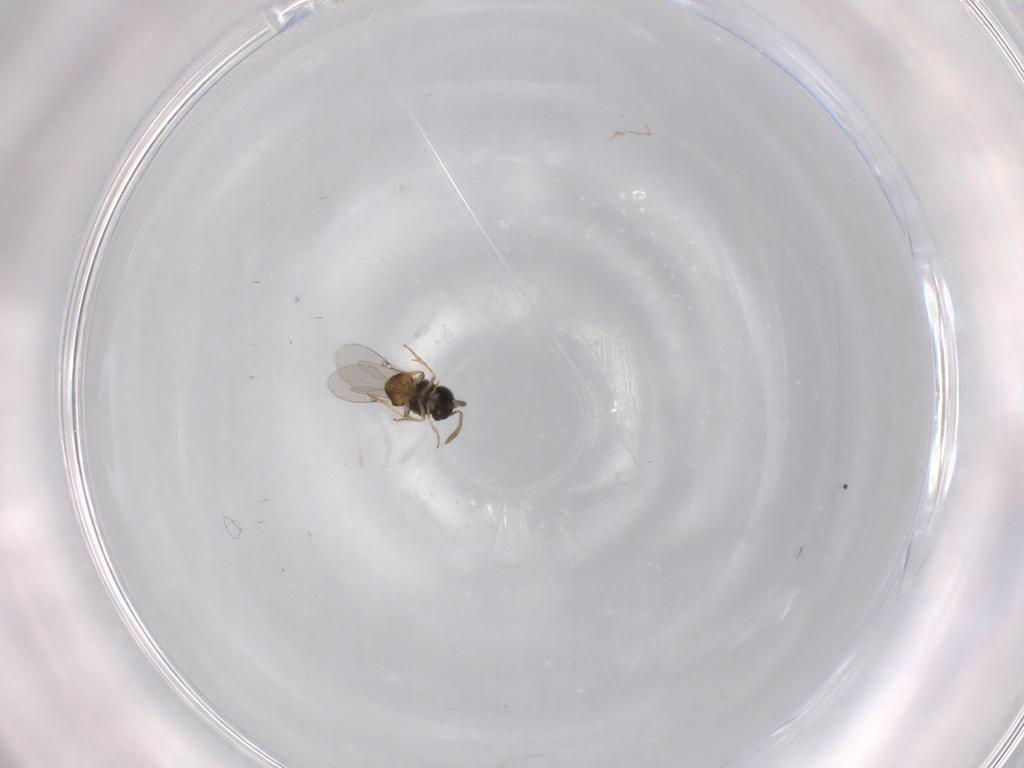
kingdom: Animalia
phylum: Arthropoda
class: Insecta
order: Hymenoptera
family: Encyrtidae
